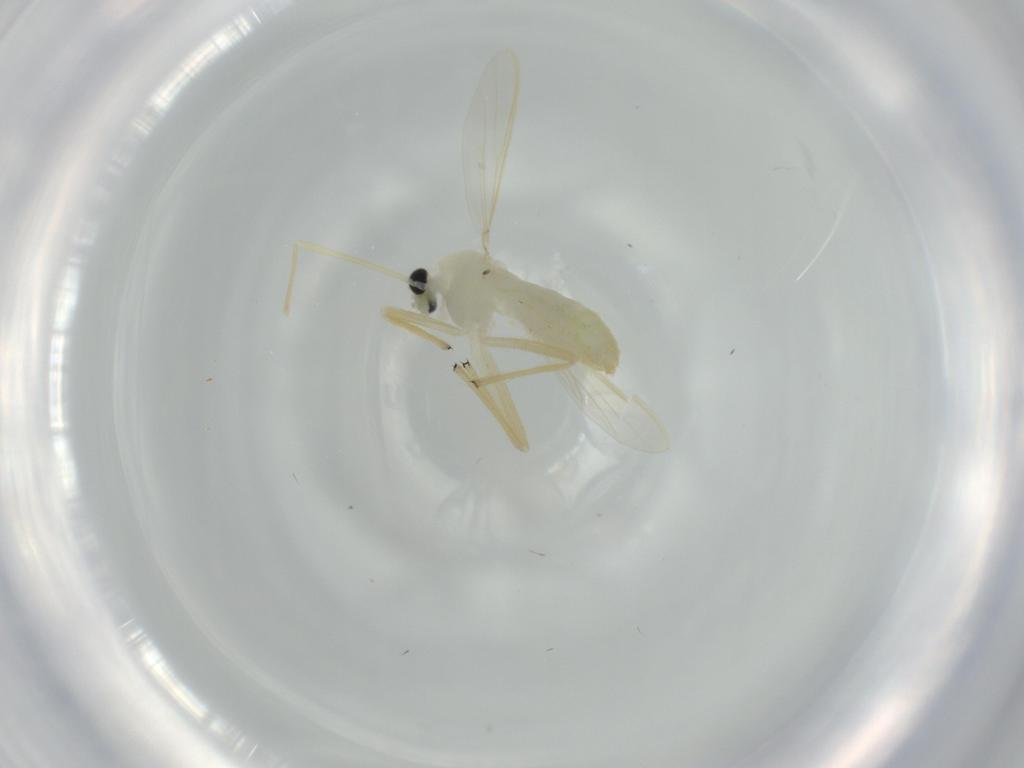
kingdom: Animalia
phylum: Arthropoda
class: Insecta
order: Diptera
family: Chironomidae
